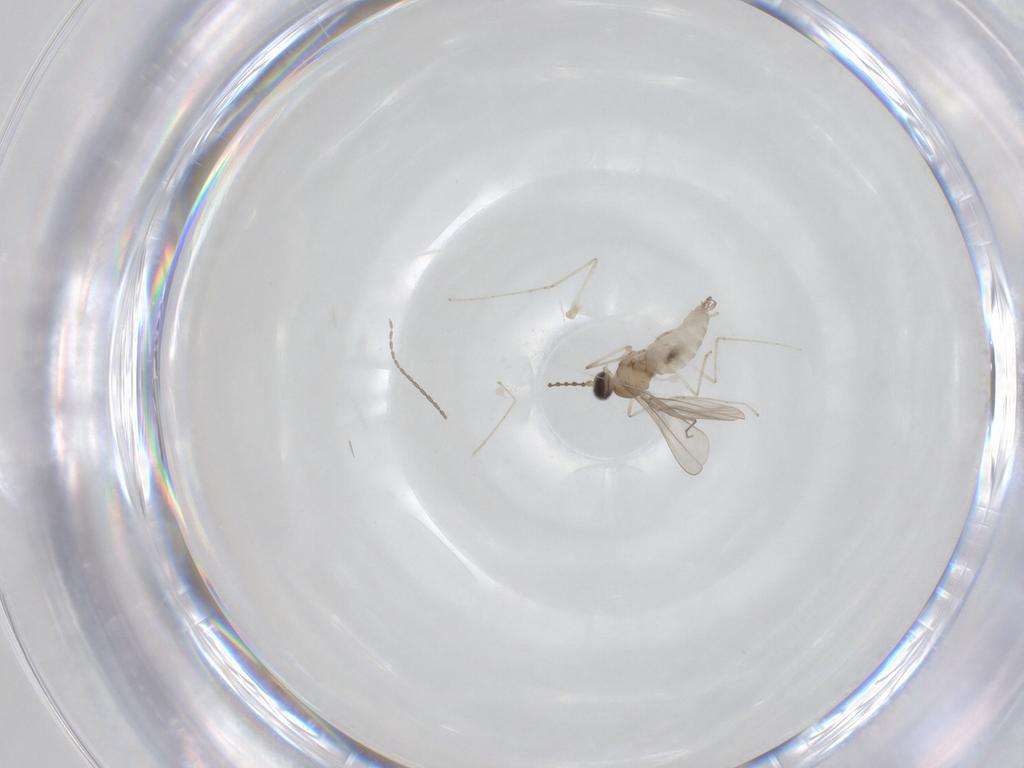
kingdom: Animalia
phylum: Arthropoda
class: Insecta
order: Diptera
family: Cecidomyiidae
